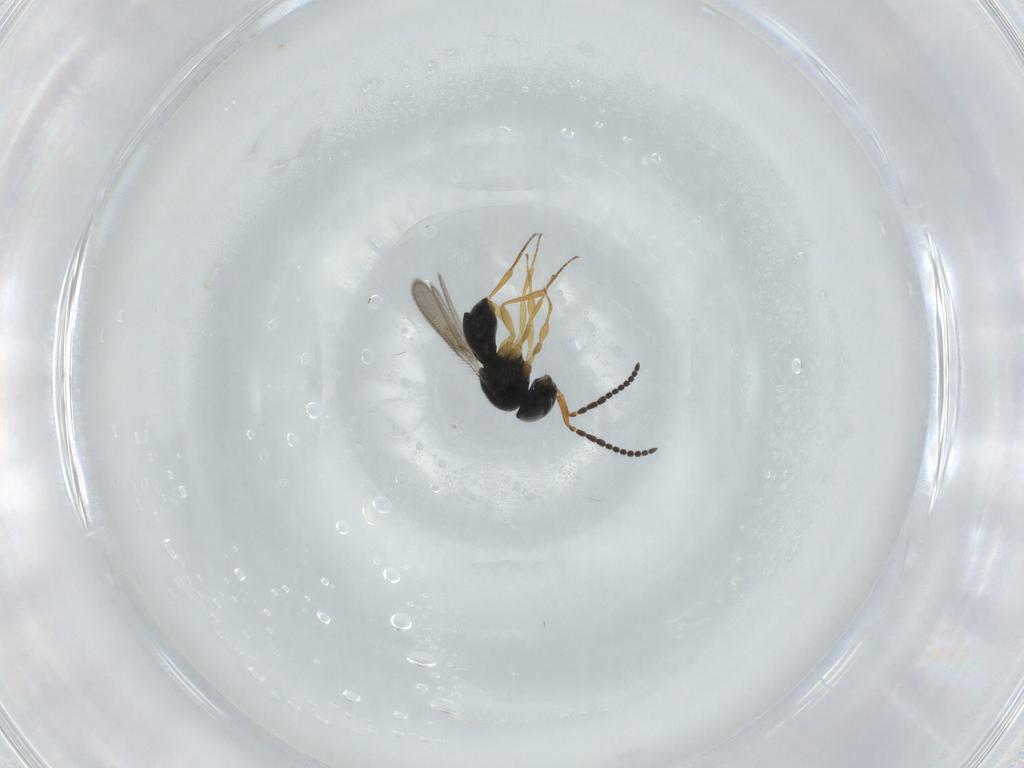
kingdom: Animalia
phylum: Arthropoda
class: Insecta
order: Hymenoptera
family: Scelionidae
